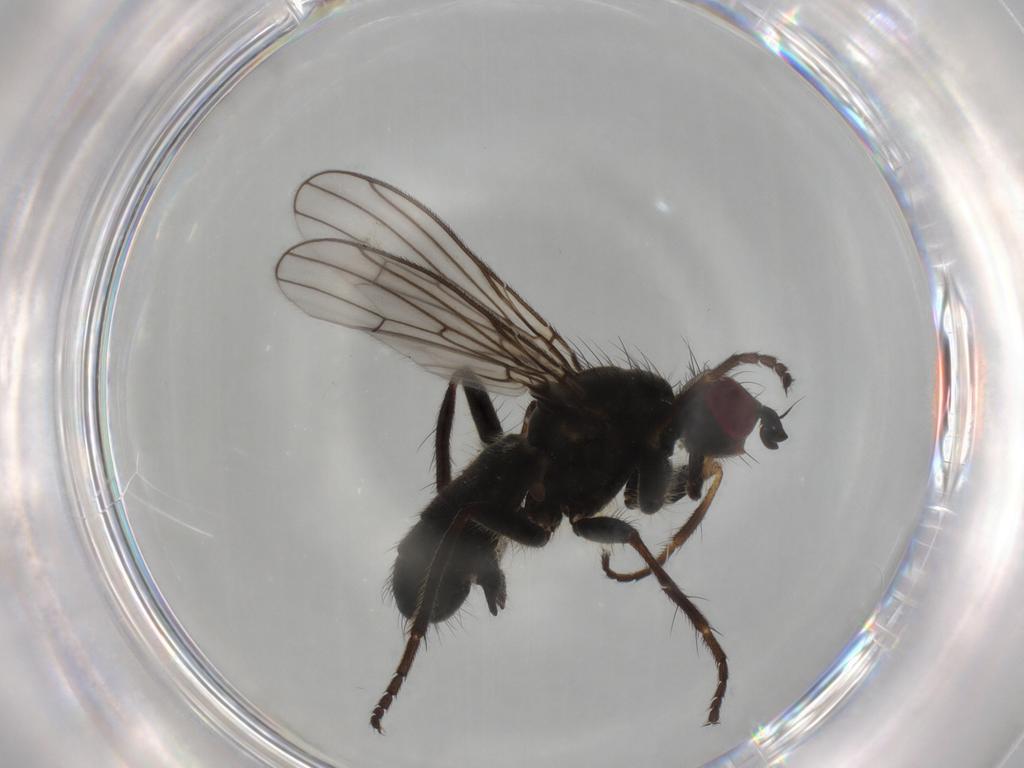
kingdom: Animalia
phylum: Arthropoda
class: Insecta
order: Diptera
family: Scathophagidae
